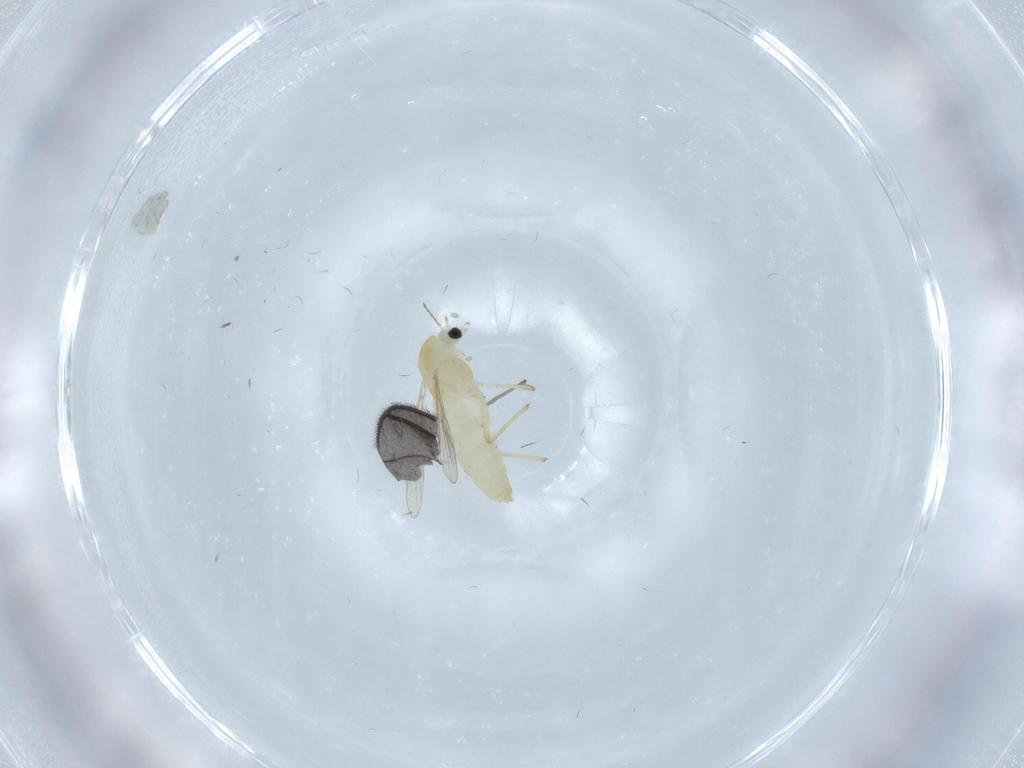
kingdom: Animalia
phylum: Arthropoda
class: Insecta
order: Diptera
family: Chironomidae
